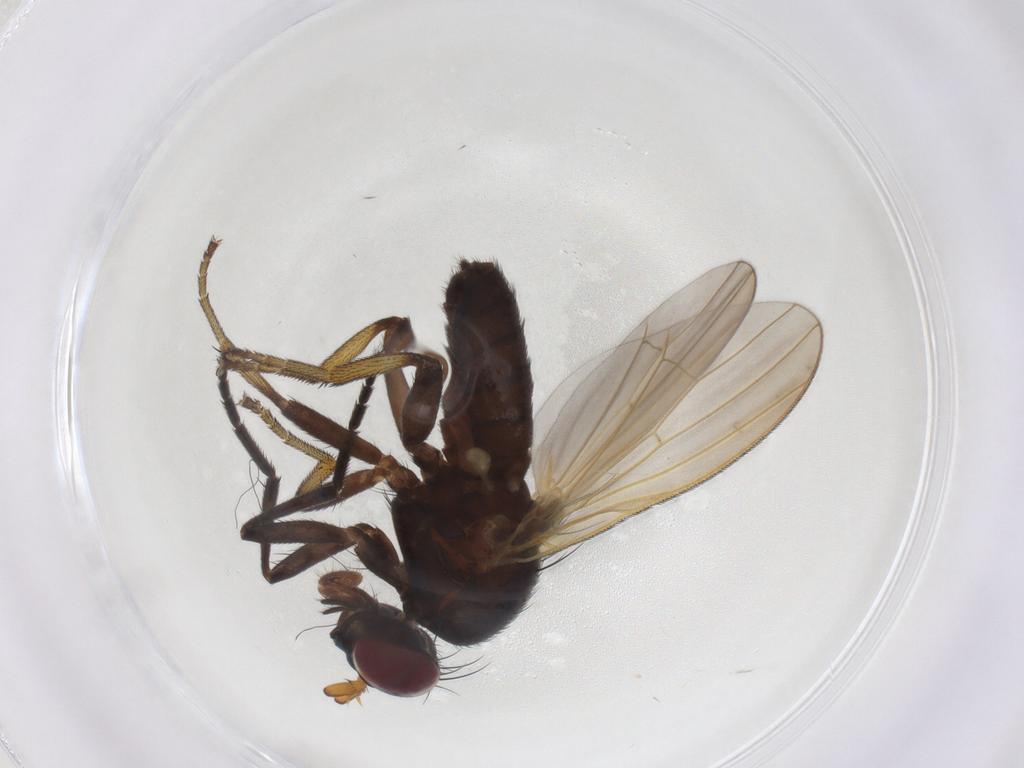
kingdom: Animalia
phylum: Arthropoda
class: Insecta
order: Diptera
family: Lauxaniidae
